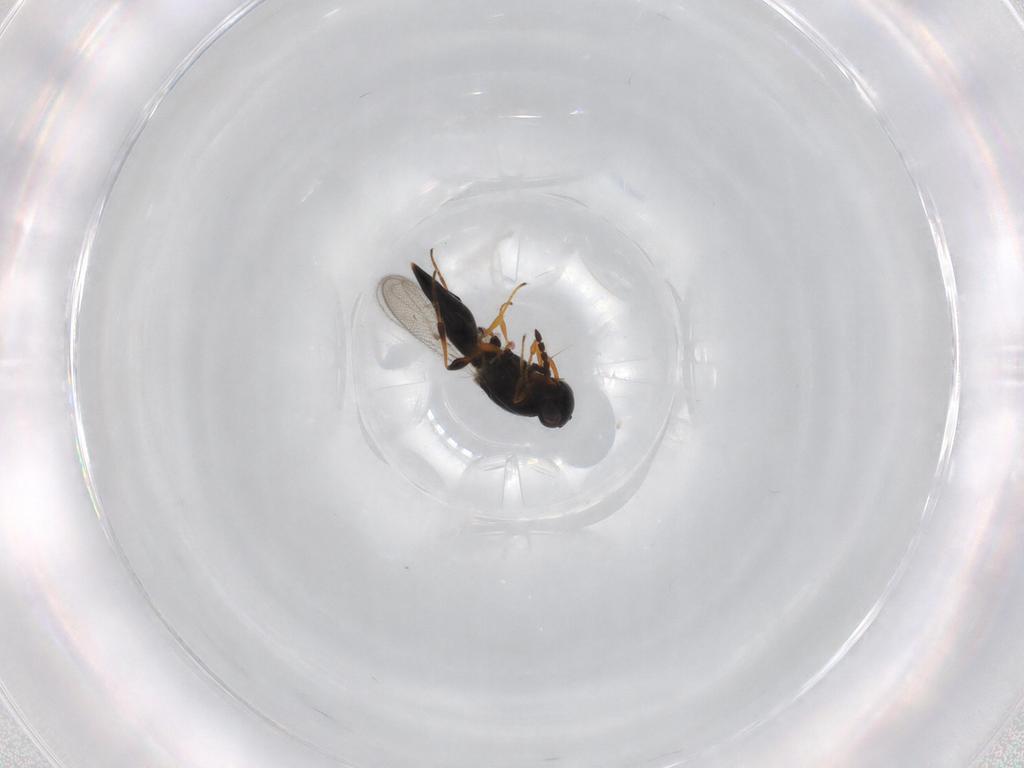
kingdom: Animalia
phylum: Arthropoda
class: Insecta
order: Hymenoptera
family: Platygastridae
